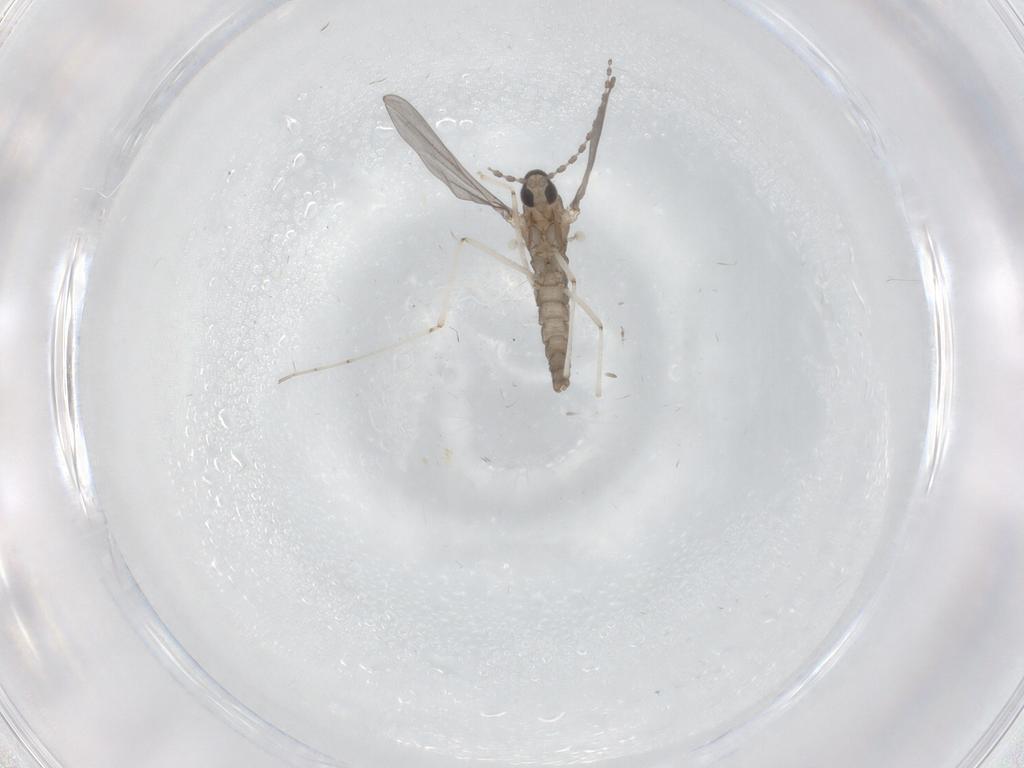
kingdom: Animalia
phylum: Arthropoda
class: Insecta
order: Diptera
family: Cecidomyiidae
